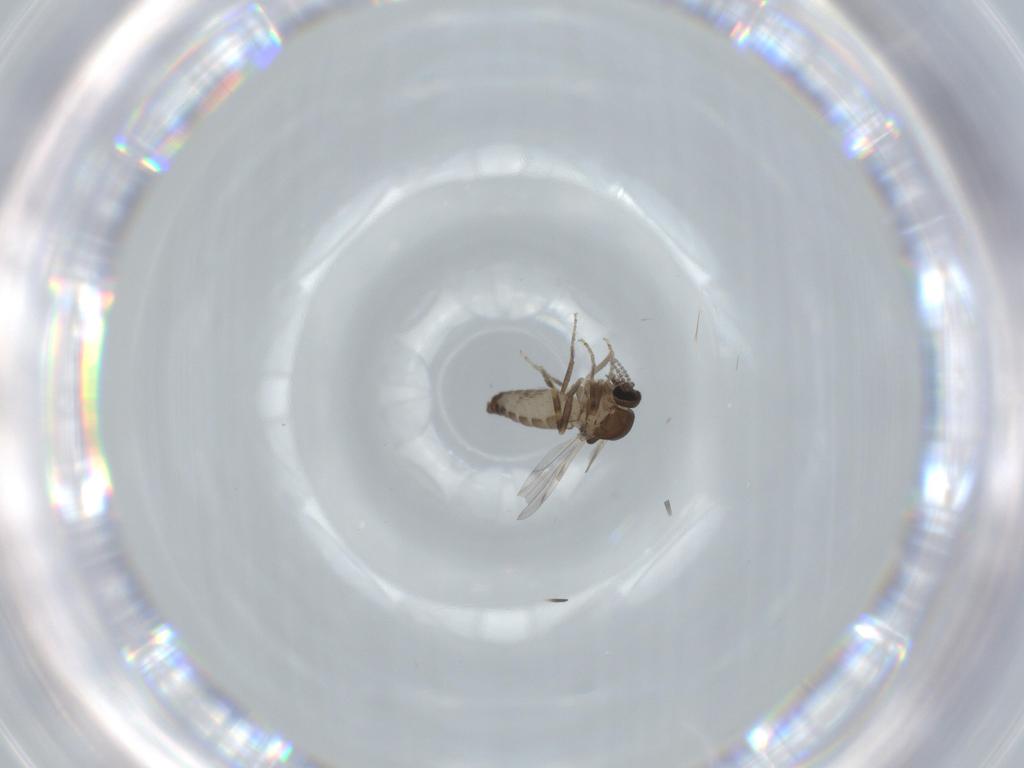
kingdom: Animalia
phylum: Arthropoda
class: Insecta
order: Diptera
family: Ceratopogonidae
